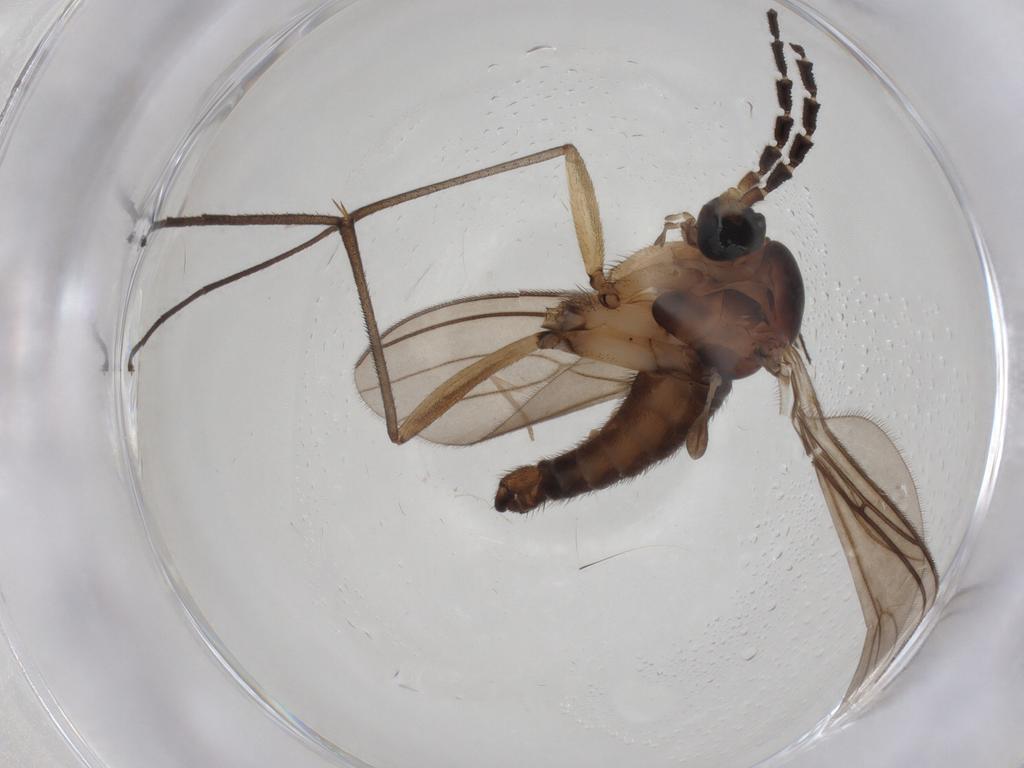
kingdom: Animalia
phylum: Arthropoda
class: Insecta
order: Diptera
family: Sciaridae
